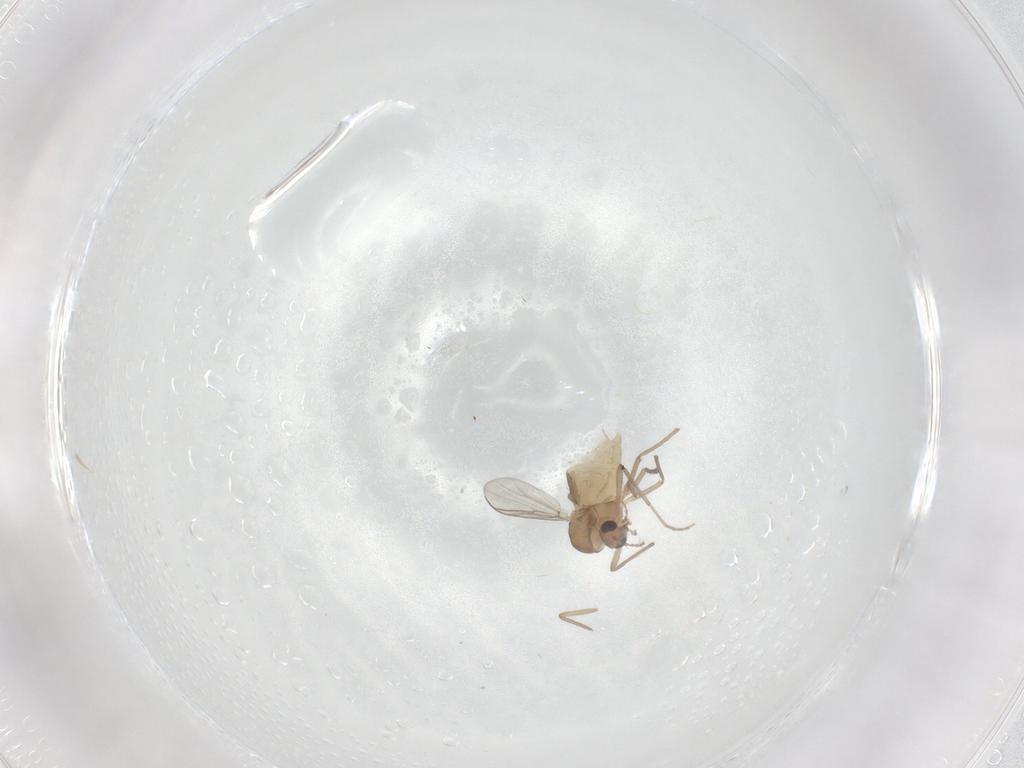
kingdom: Animalia
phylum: Arthropoda
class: Insecta
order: Diptera
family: Chironomidae
